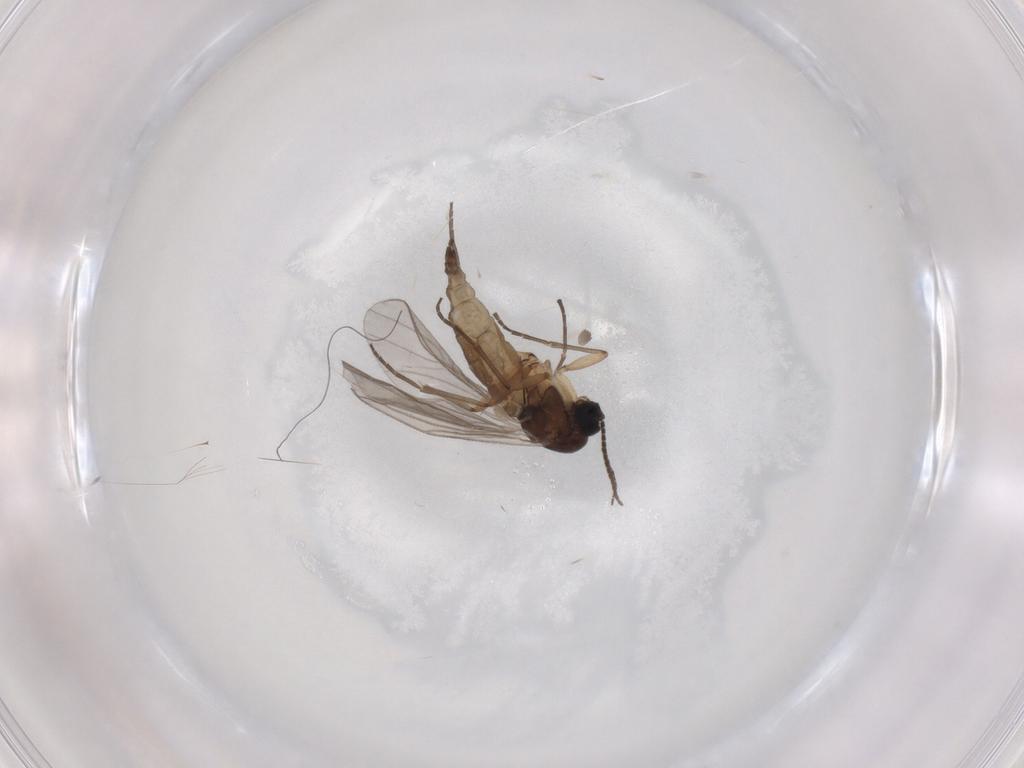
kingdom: Animalia
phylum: Arthropoda
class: Insecta
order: Diptera
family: Sciaridae
